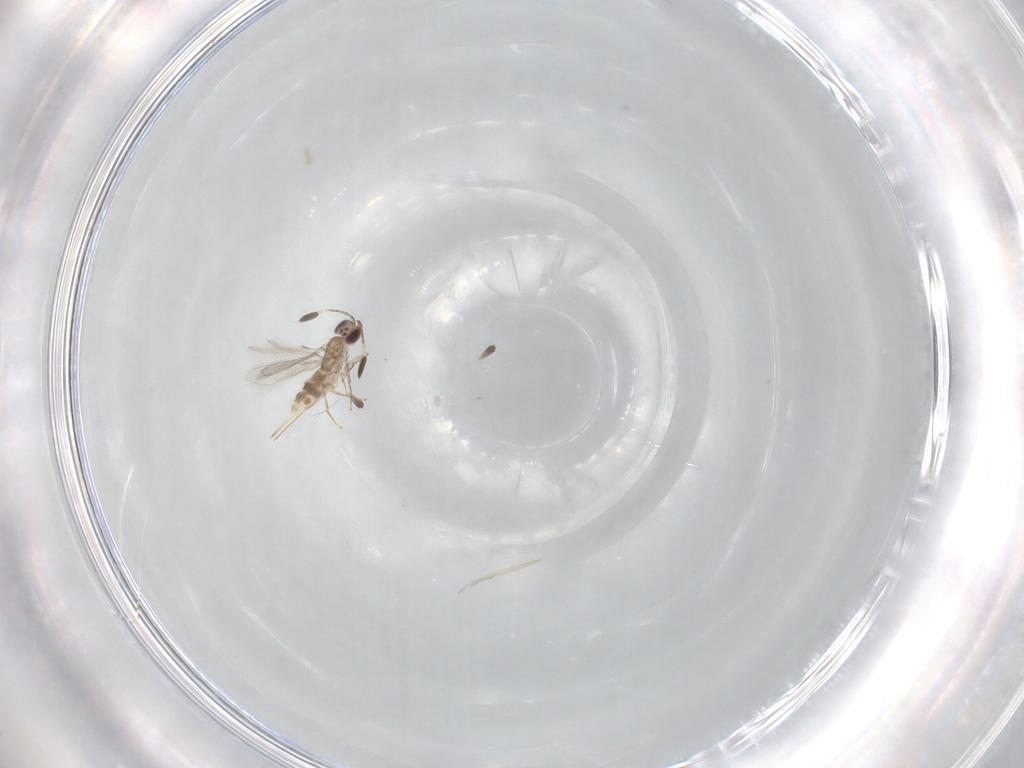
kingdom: Animalia
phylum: Arthropoda
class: Insecta
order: Hymenoptera
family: Mymaridae
